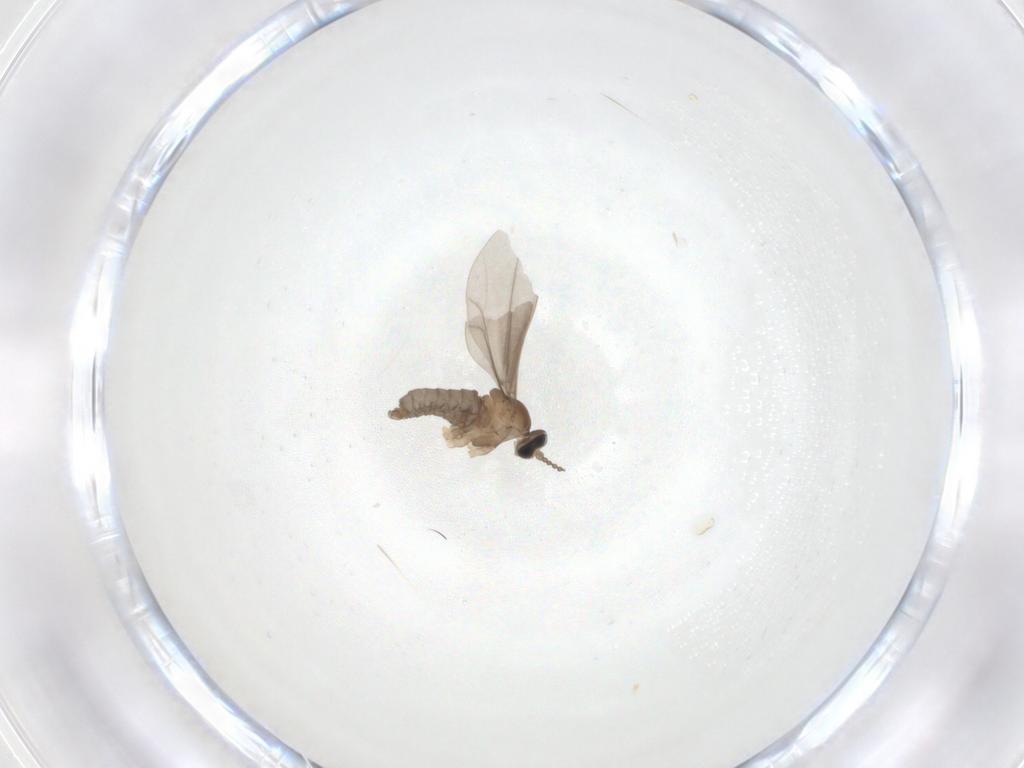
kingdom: Animalia
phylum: Arthropoda
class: Insecta
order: Diptera
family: Cecidomyiidae
